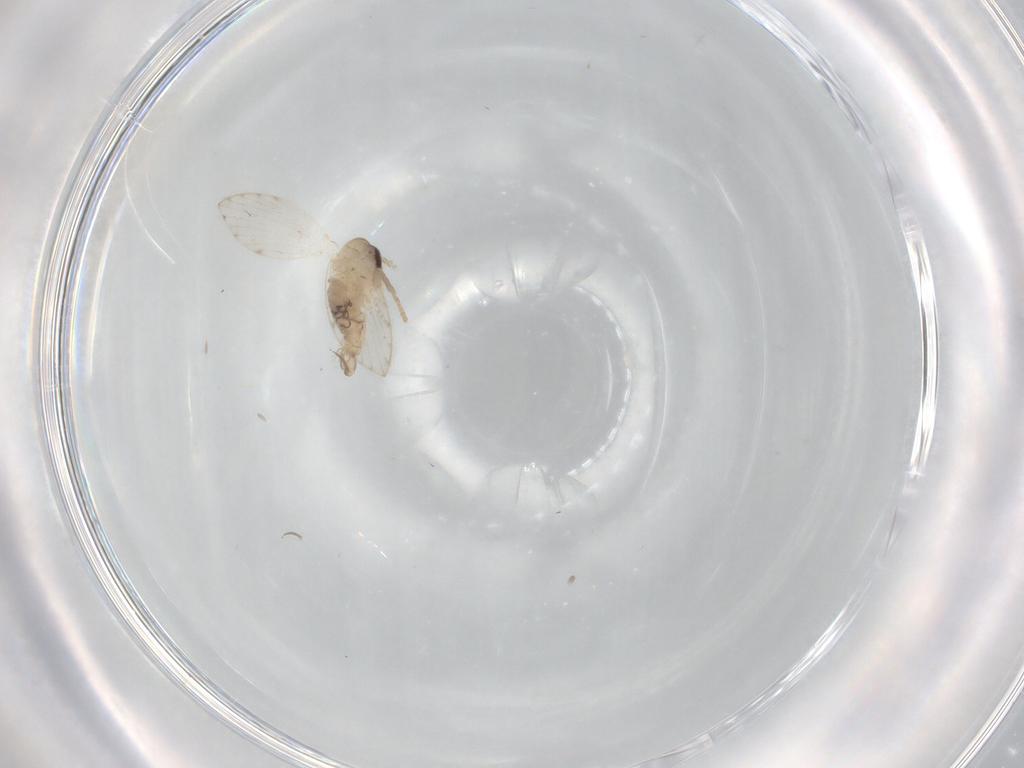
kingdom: Animalia
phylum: Arthropoda
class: Insecta
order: Diptera
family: Psychodidae
